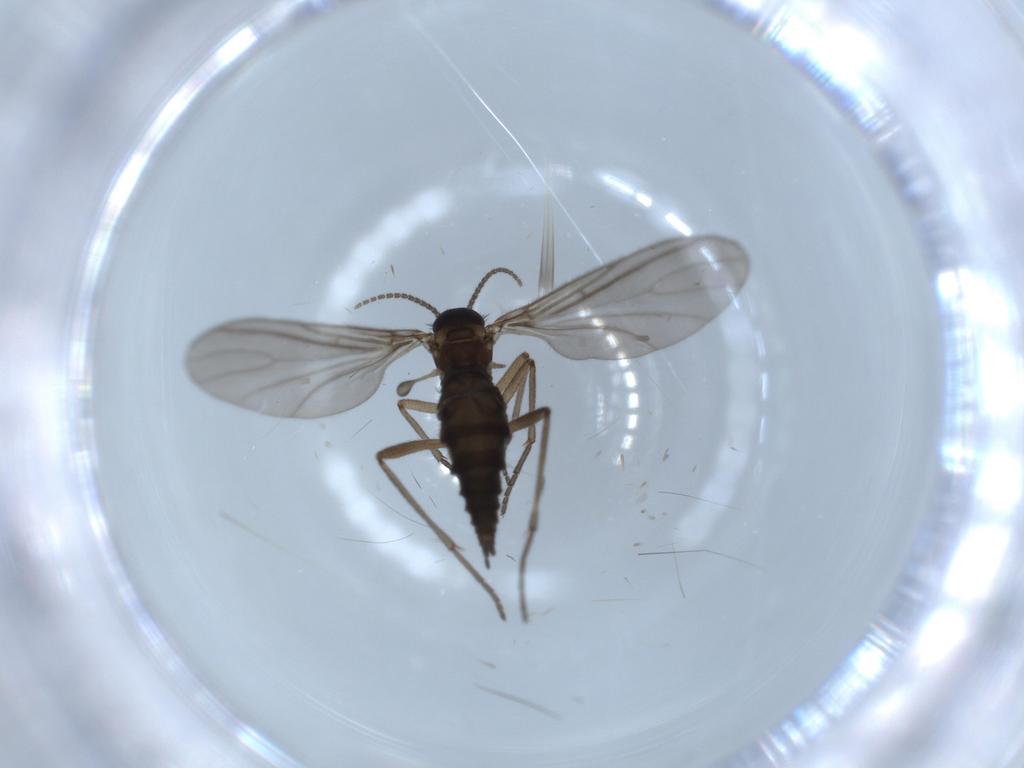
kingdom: Animalia
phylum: Arthropoda
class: Insecta
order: Diptera
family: Sciaridae
